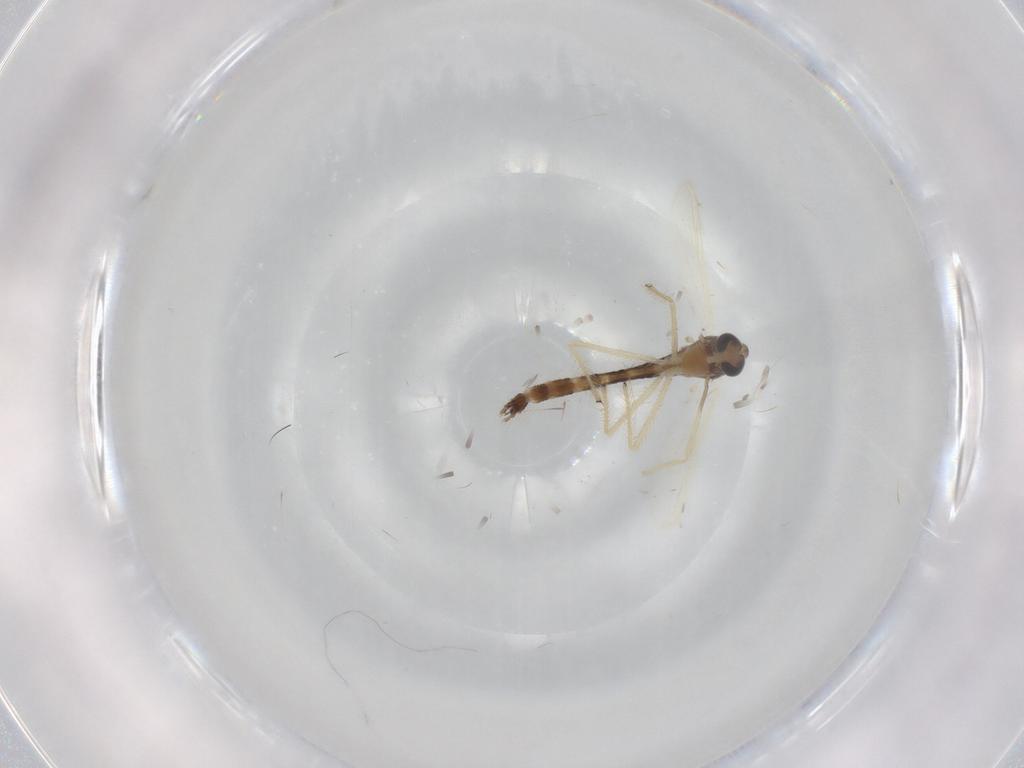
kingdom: Animalia
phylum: Arthropoda
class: Insecta
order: Diptera
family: Chironomidae
